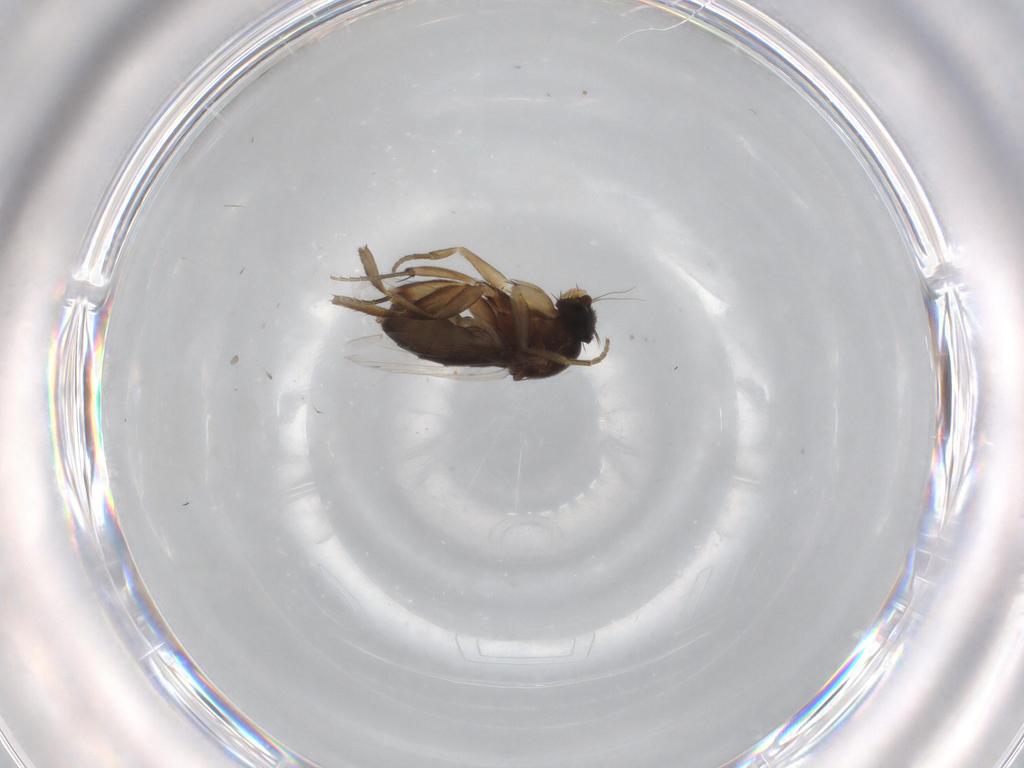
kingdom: Animalia
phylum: Arthropoda
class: Insecta
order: Diptera
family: Phoridae
